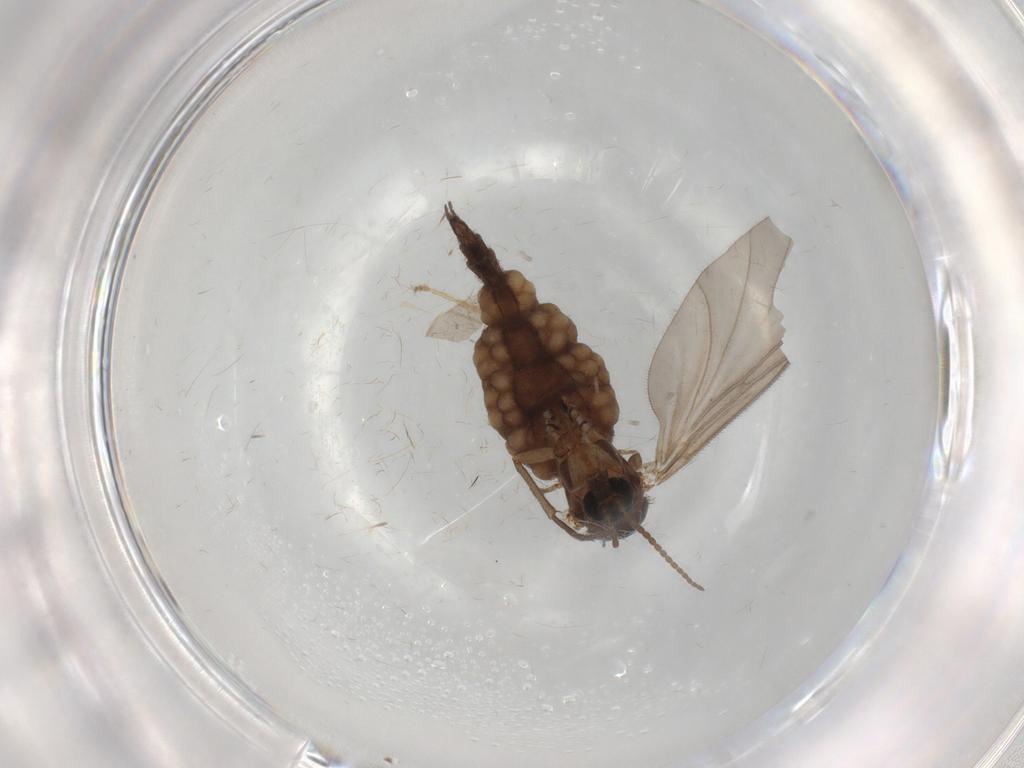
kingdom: Animalia
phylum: Arthropoda
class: Insecta
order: Diptera
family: Sciaridae
